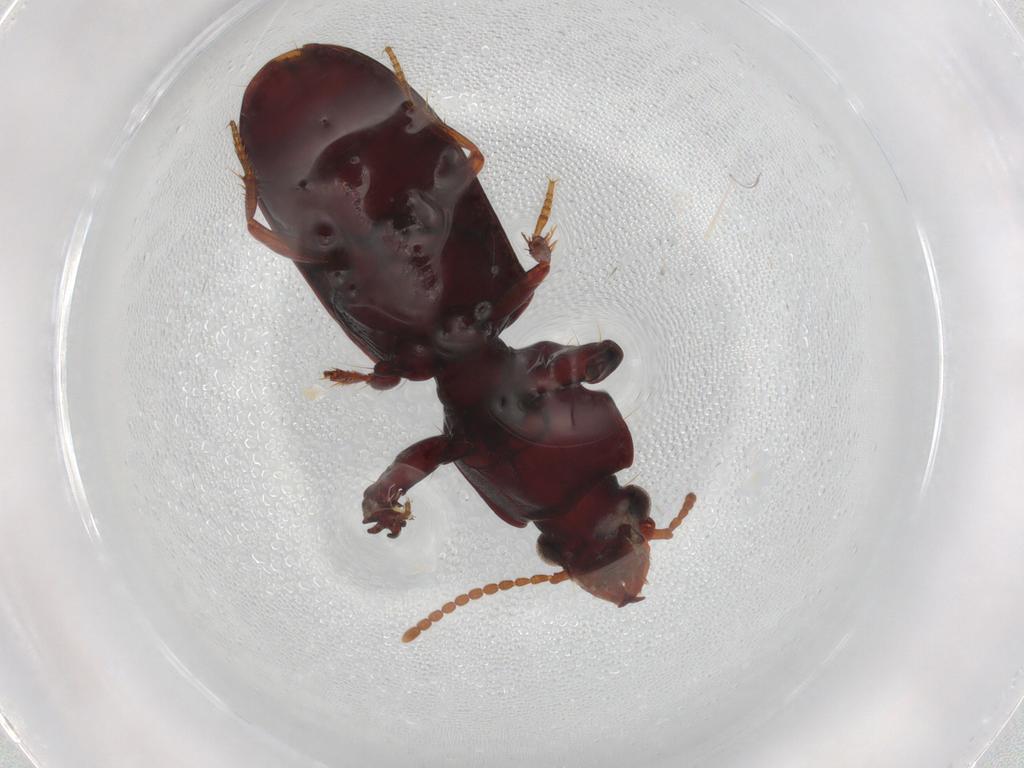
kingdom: Animalia
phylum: Arthropoda
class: Insecta
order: Coleoptera
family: Carabidae
